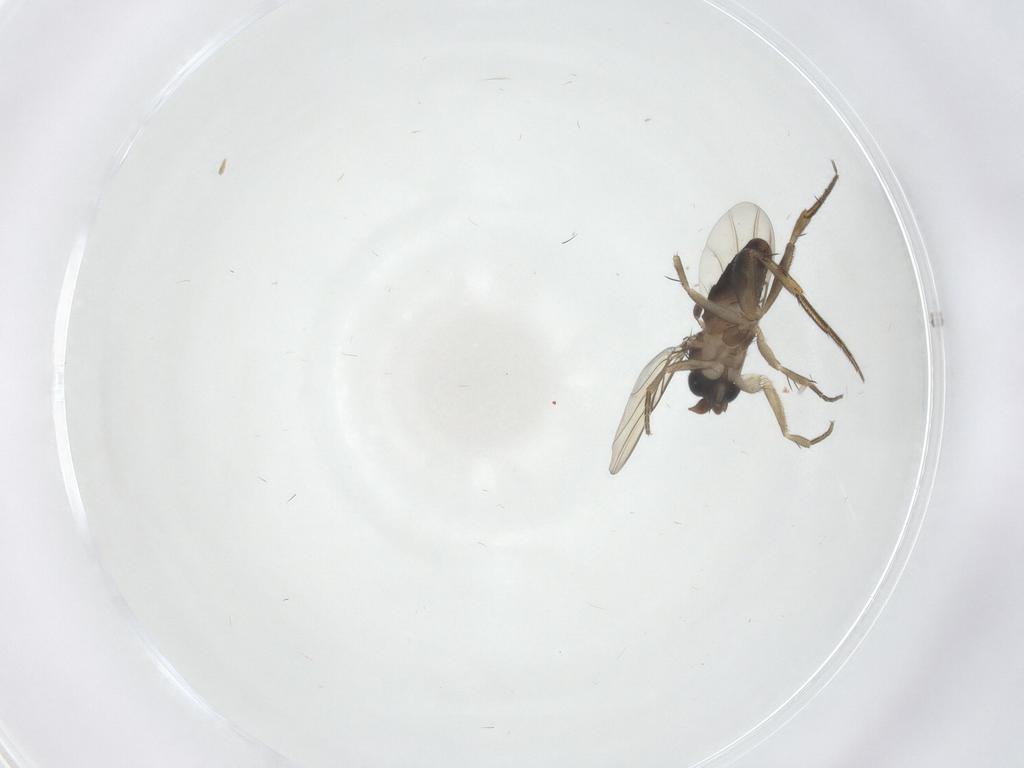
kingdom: Animalia
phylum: Arthropoda
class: Insecta
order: Diptera
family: Phoridae
